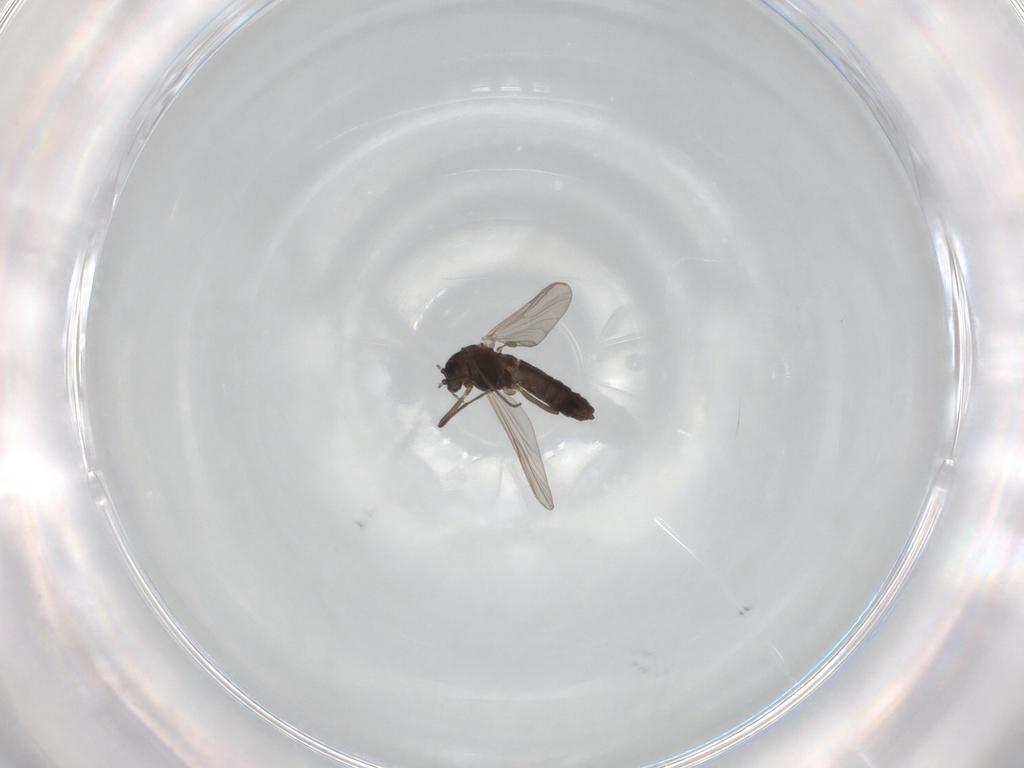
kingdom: Animalia
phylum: Arthropoda
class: Insecta
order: Diptera
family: Chironomidae
